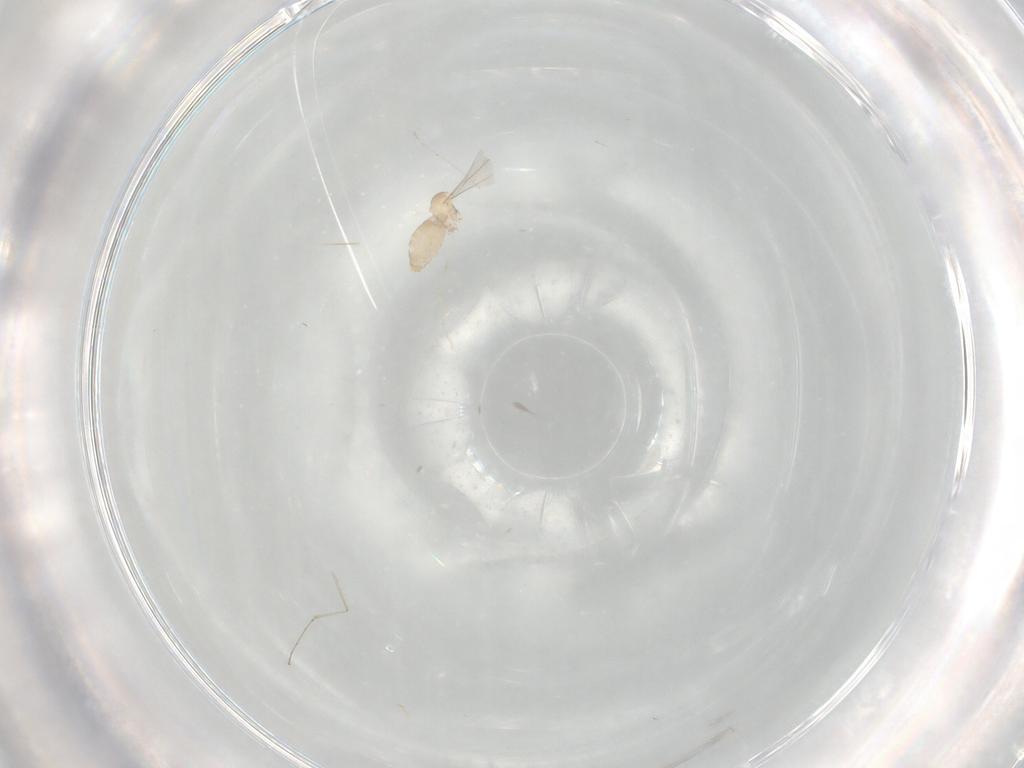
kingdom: Animalia
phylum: Arthropoda
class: Insecta
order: Diptera
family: Cecidomyiidae
